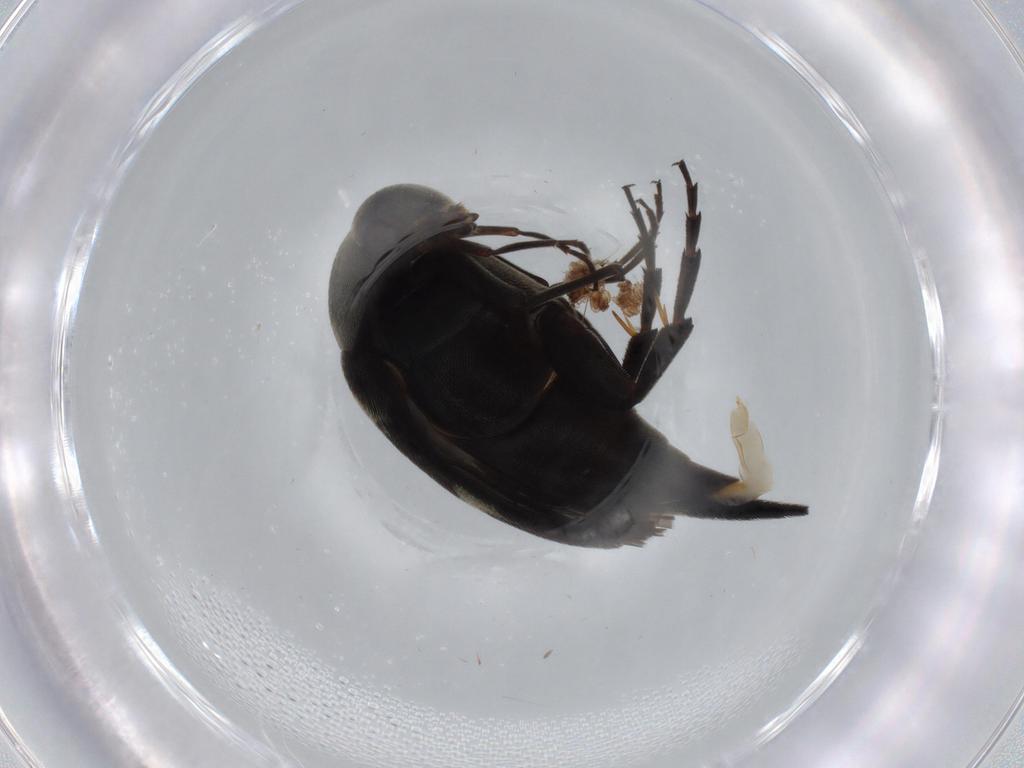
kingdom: Animalia
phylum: Arthropoda
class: Insecta
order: Coleoptera
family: Mordellidae
